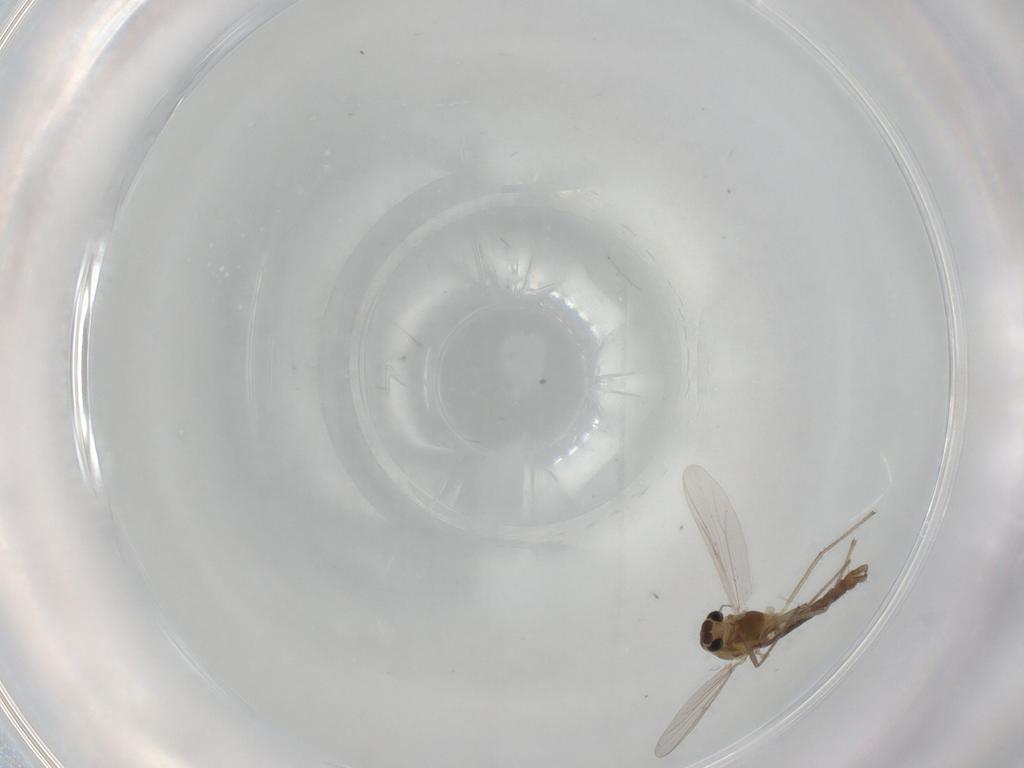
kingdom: Animalia
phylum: Arthropoda
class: Insecta
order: Diptera
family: Chironomidae
